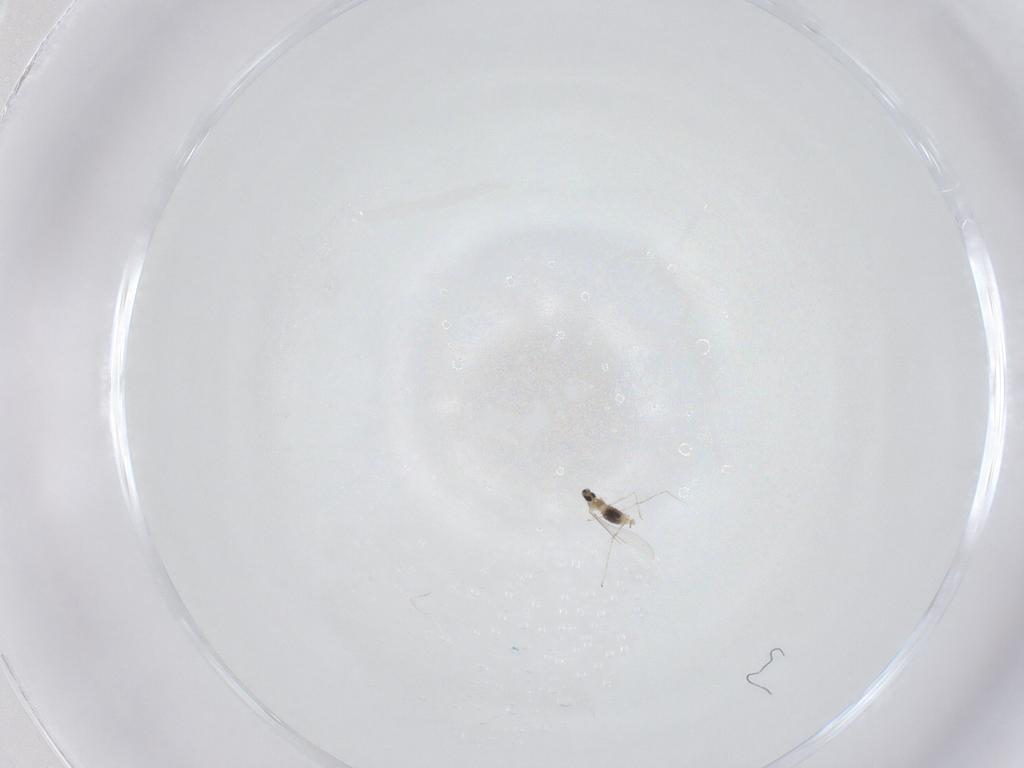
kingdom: Animalia
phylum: Arthropoda
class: Insecta
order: Diptera
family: Cecidomyiidae
